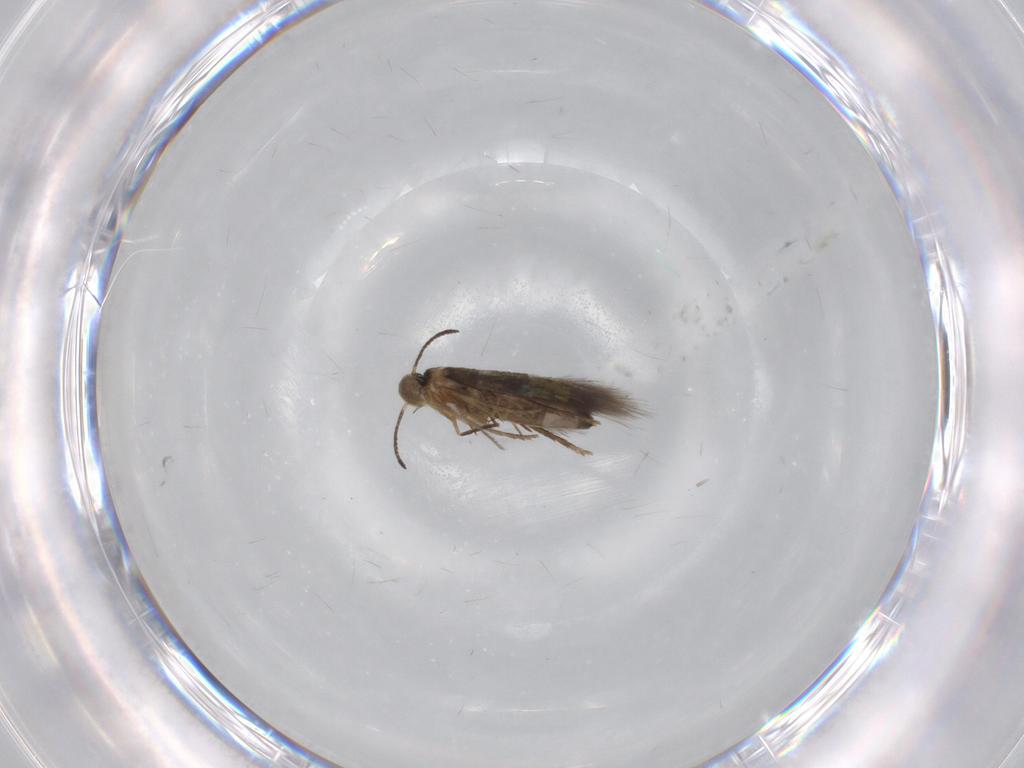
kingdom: Animalia
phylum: Arthropoda
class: Insecta
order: Lepidoptera
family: Heliozelidae
